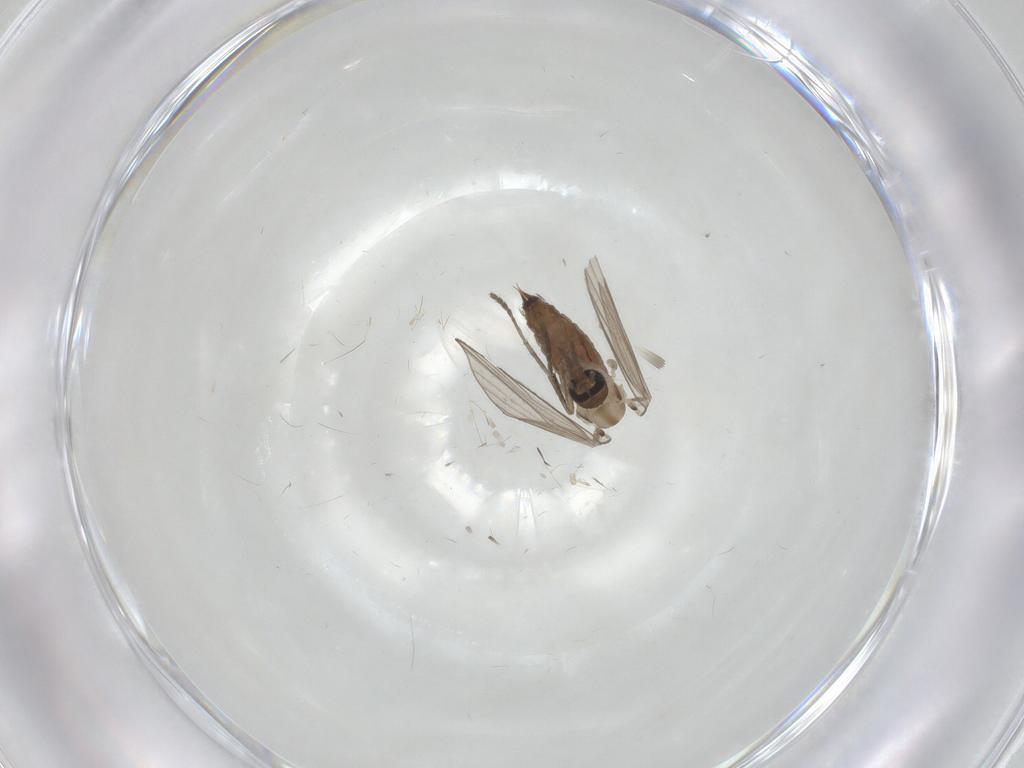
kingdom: Animalia
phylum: Arthropoda
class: Insecta
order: Diptera
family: Psychodidae
